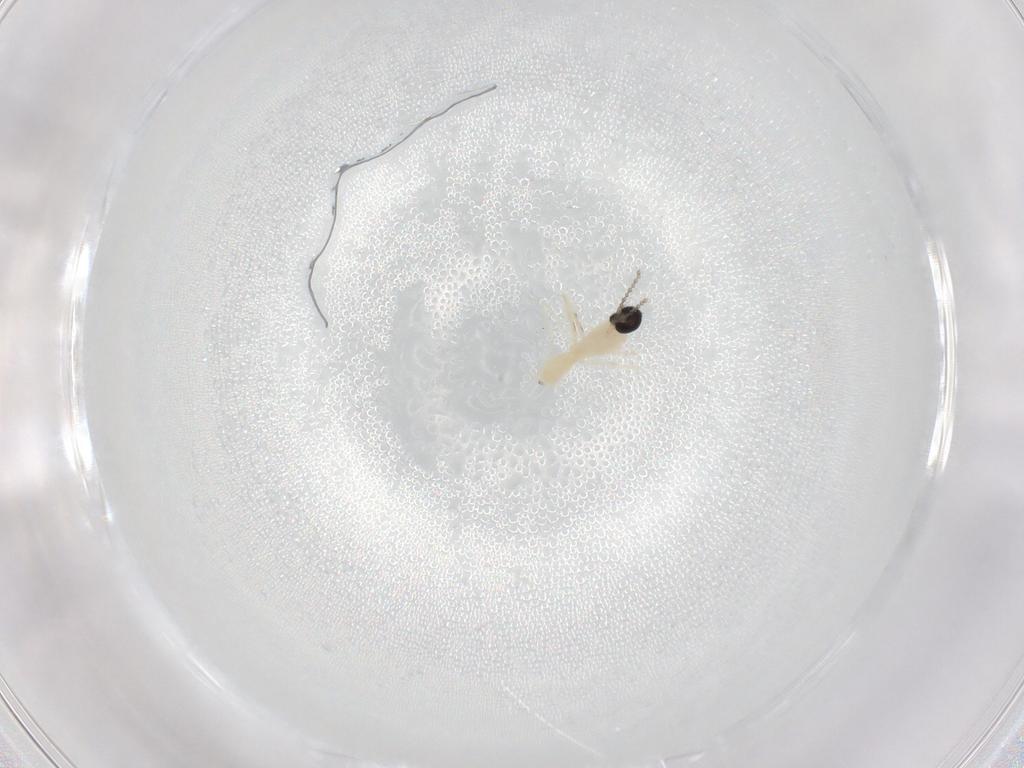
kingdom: Animalia
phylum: Arthropoda
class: Insecta
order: Diptera
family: Cecidomyiidae
